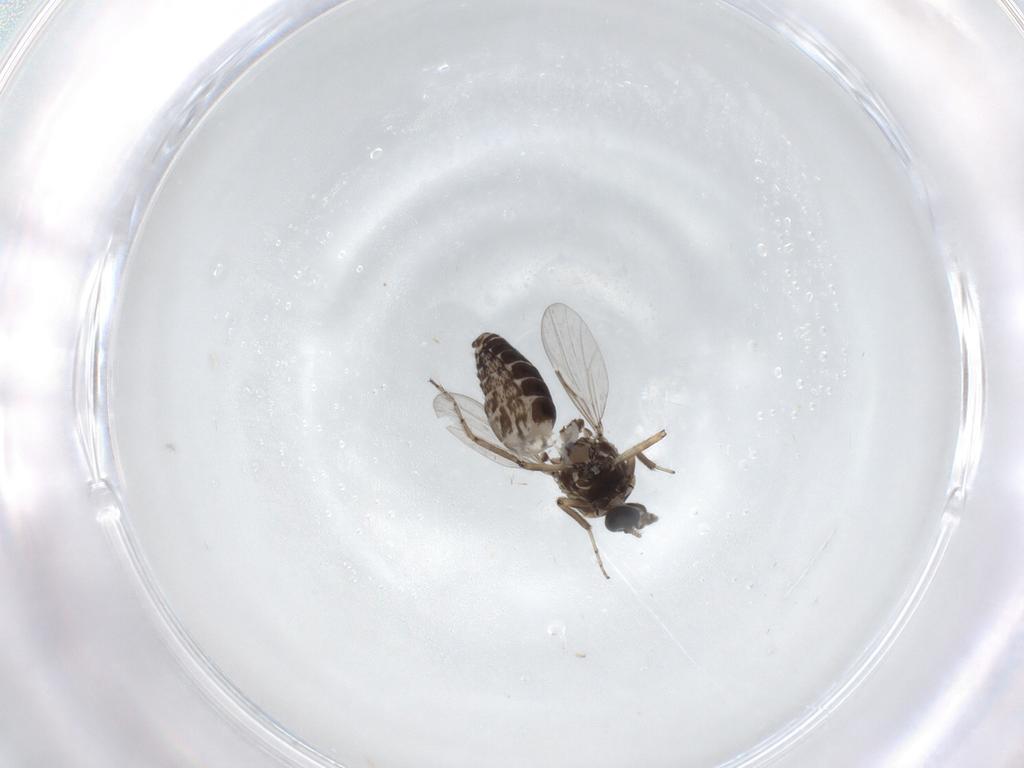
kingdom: Animalia
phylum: Arthropoda
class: Insecta
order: Diptera
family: Ceratopogonidae
